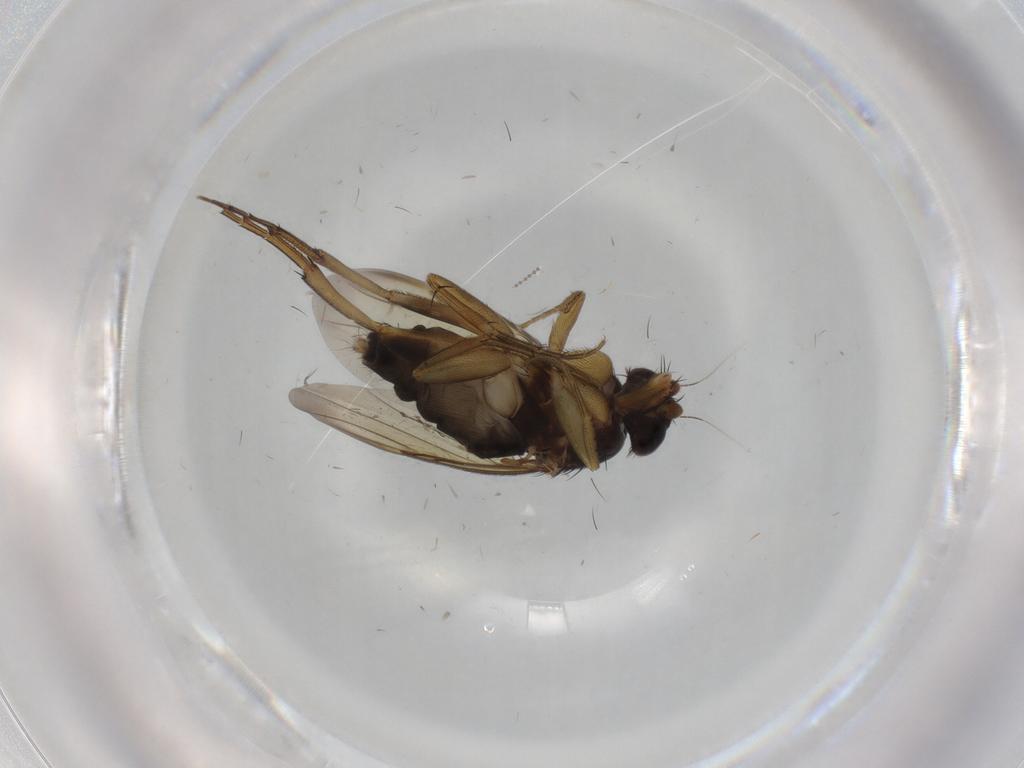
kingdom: Animalia
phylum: Arthropoda
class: Insecta
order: Diptera
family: Phoridae
